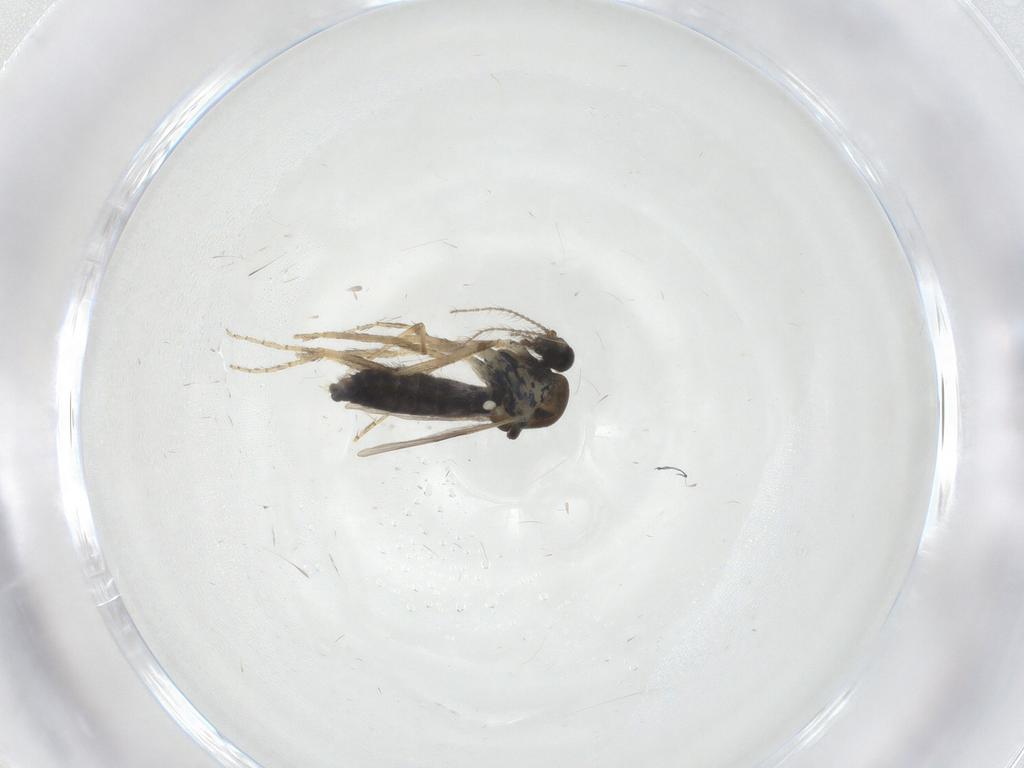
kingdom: Animalia
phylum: Arthropoda
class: Insecta
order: Diptera
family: Ceratopogonidae
